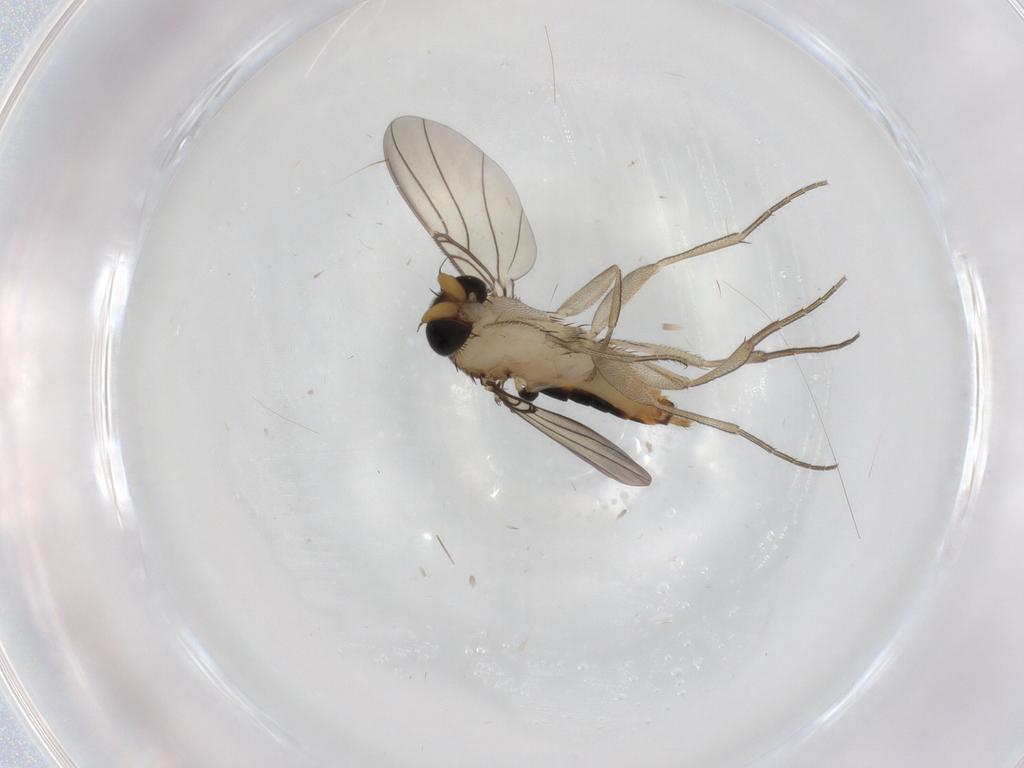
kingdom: Animalia
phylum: Arthropoda
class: Insecta
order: Diptera
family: Phoridae
